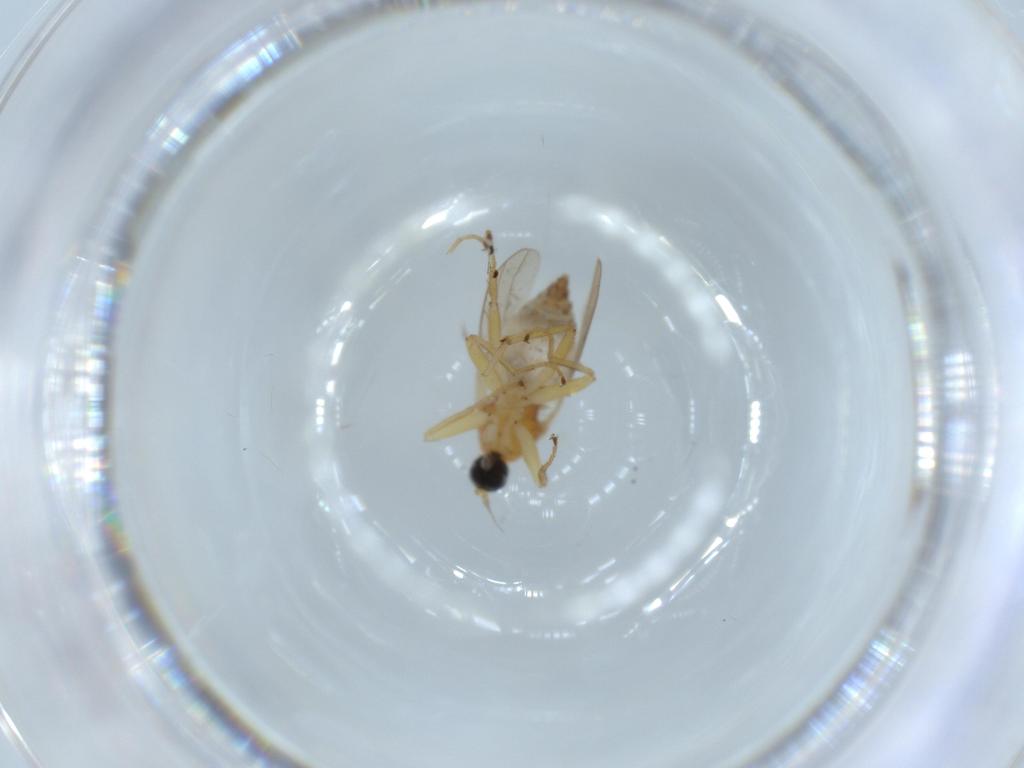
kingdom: Animalia
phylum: Arthropoda
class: Insecta
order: Diptera
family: Hybotidae
